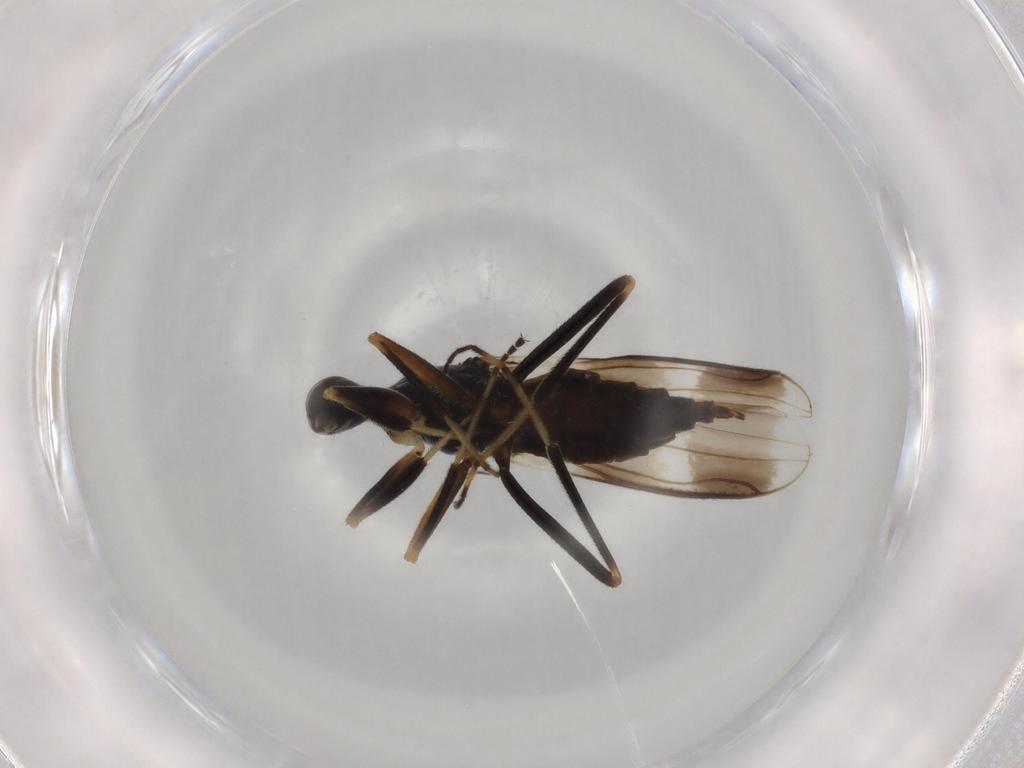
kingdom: Animalia
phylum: Arthropoda
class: Insecta
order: Diptera
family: Hybotidae
